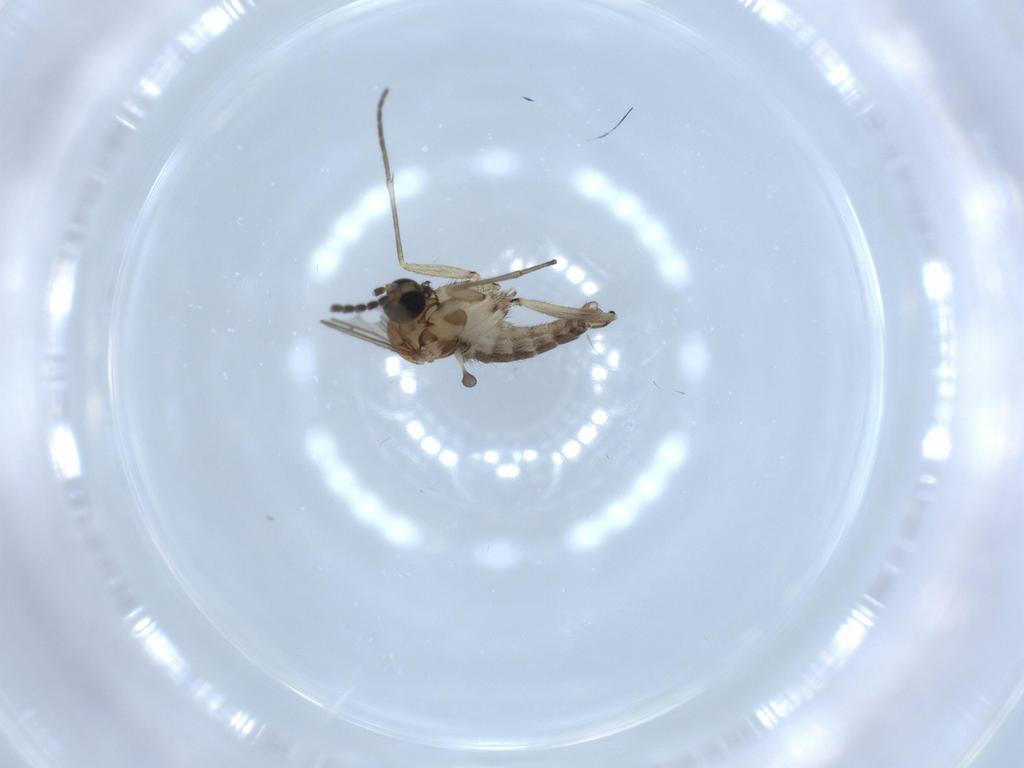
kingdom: Animalia
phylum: Arthropoda
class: Insecta
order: Diptera
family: Sciaridae
